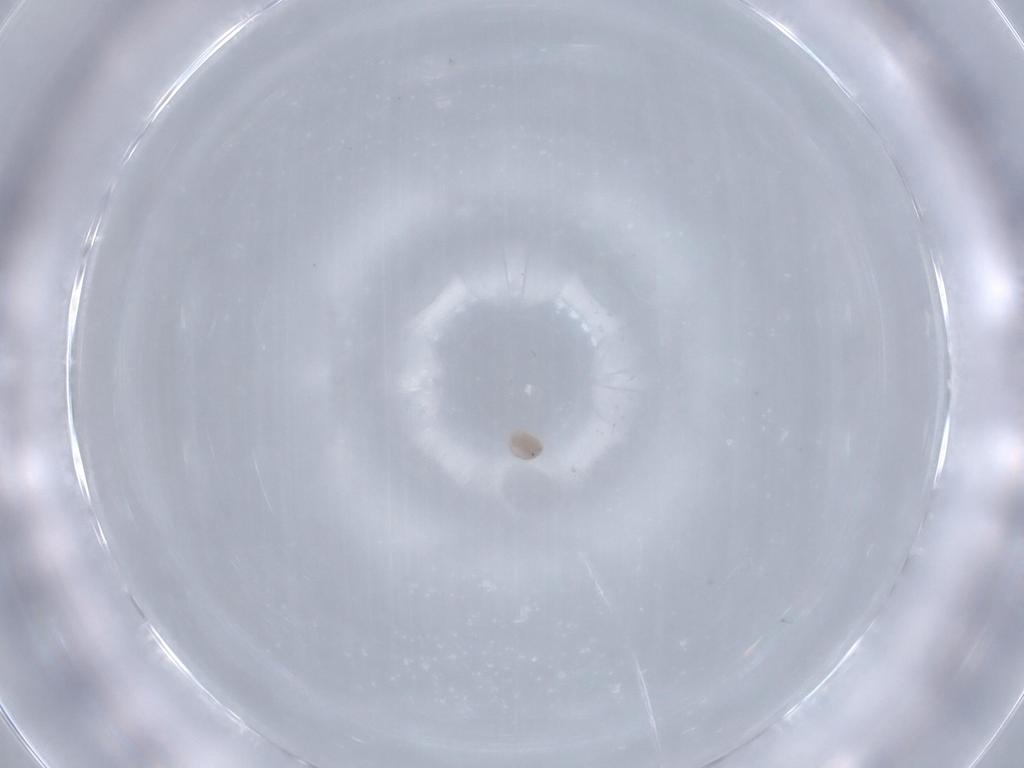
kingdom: Animalia
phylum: Arthropoda
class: Arachnida
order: Trombidiformes
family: Pionidae
